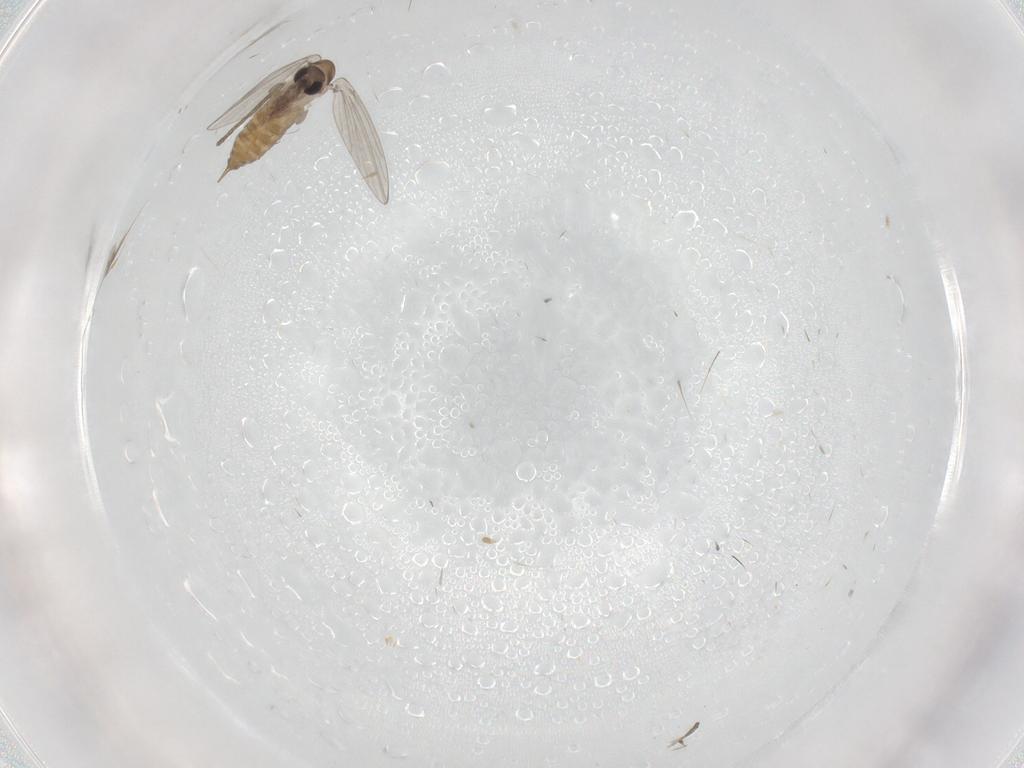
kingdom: Animalia
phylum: Arthropoda
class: Insecta
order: Diptera
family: Psychodidae
